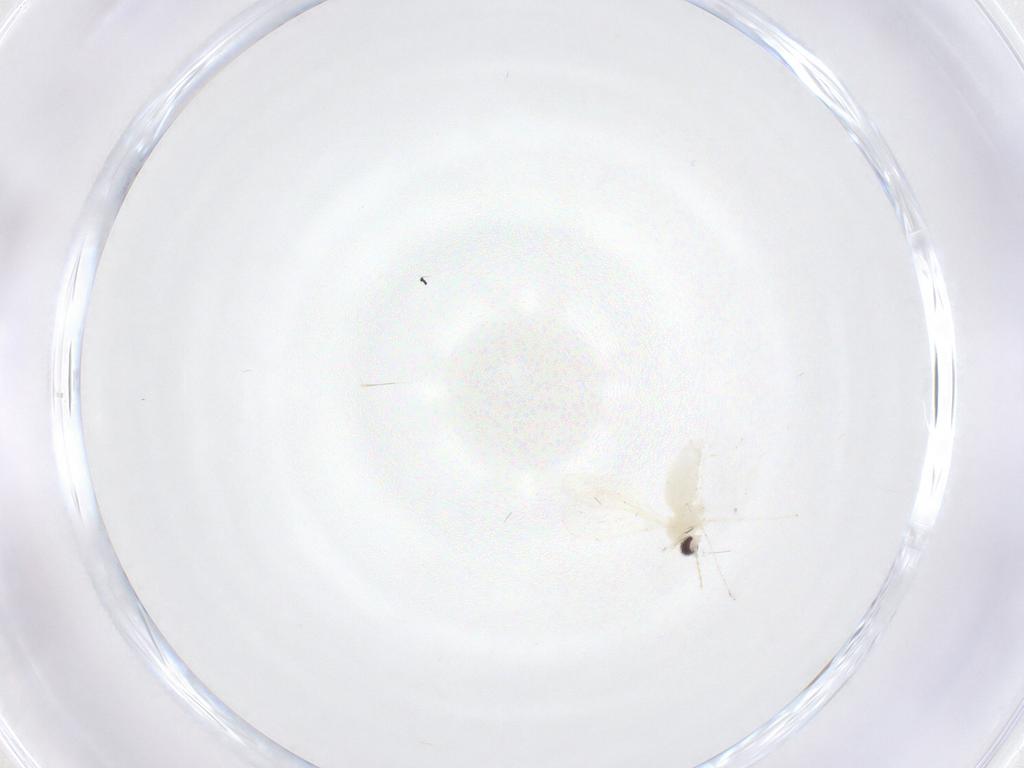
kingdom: Animalia
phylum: Arthropoda
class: Insecta
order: Diptera
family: Cecidomyiidae
